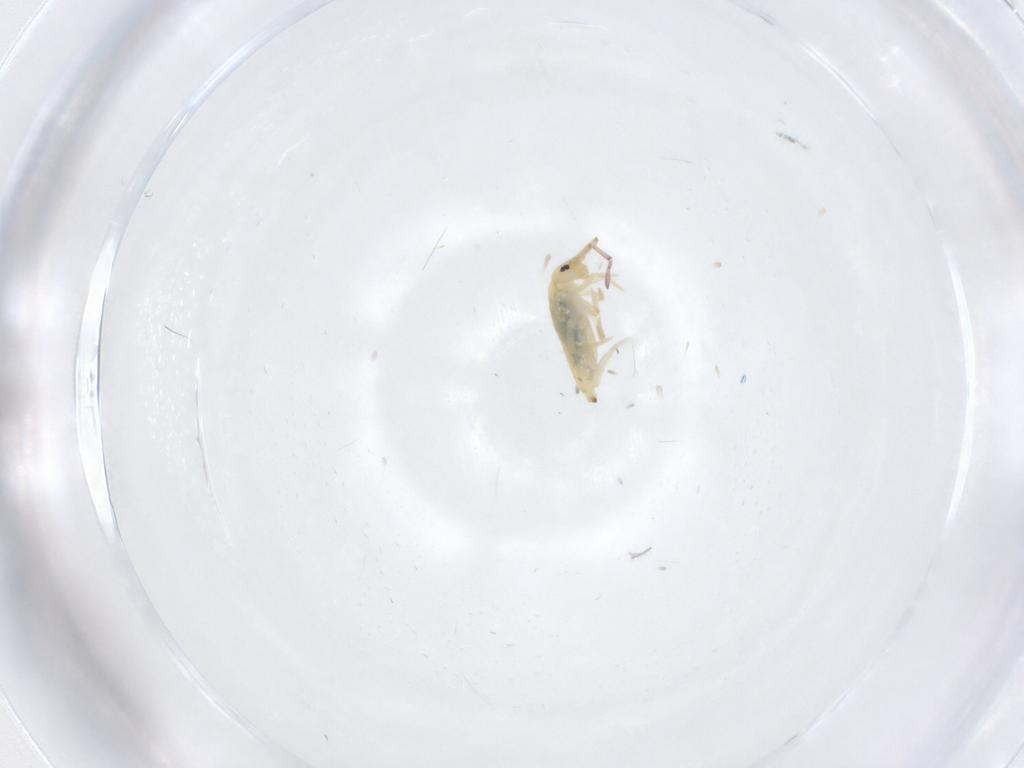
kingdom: Animalia
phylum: Arthropoda
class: Collembola
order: Entomobryomorpha
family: Entomobryidae
